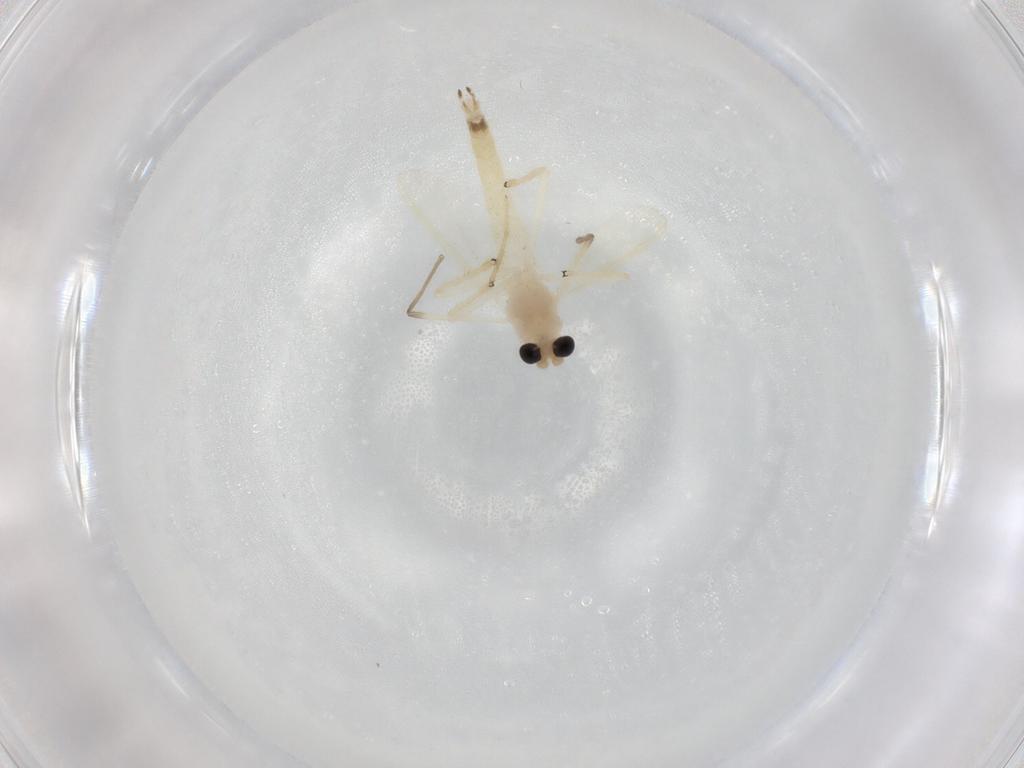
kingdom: Animalia
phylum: Arthropoda
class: Insecta
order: Diptera
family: Chironomidae
